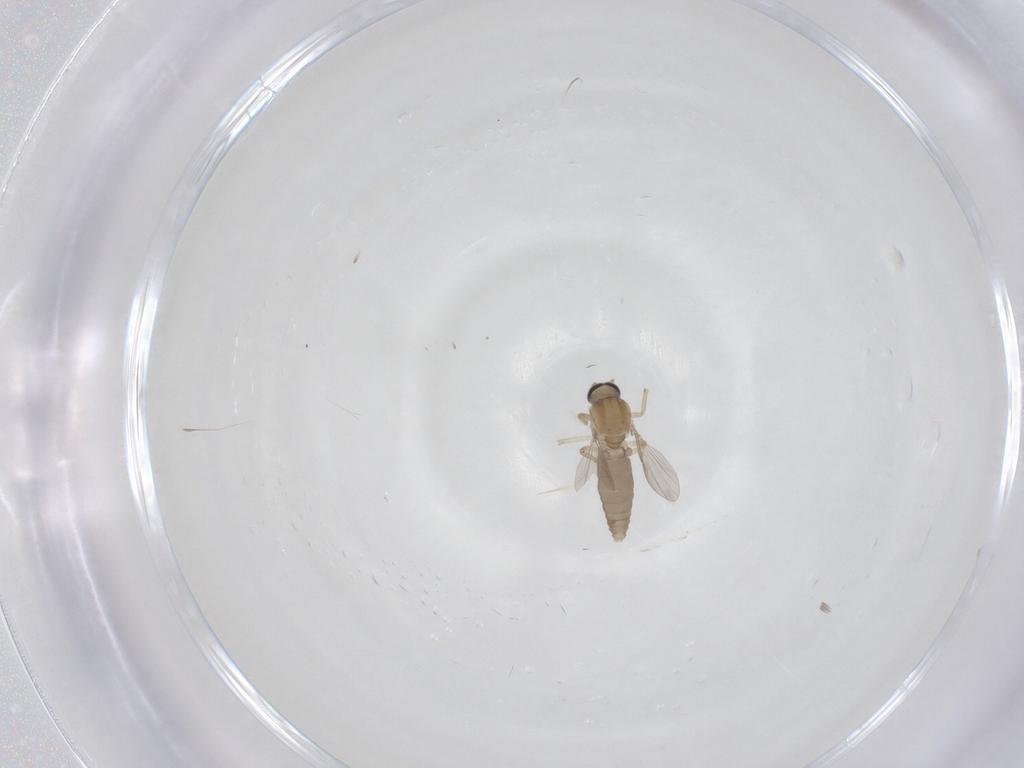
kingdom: Animalia
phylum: Arthropoda
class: Insecta
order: Diptera
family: Ceratopogonidae
